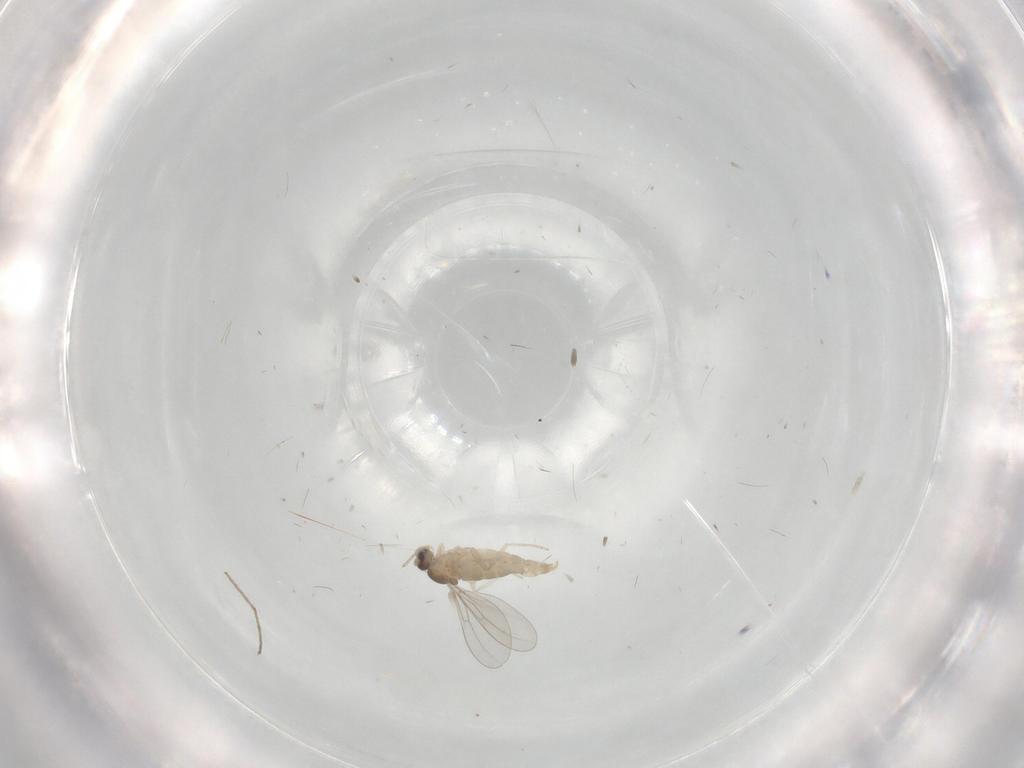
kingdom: Animalia
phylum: Arthropoda
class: Insecta
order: Diptera
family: Cecidomyiidae
